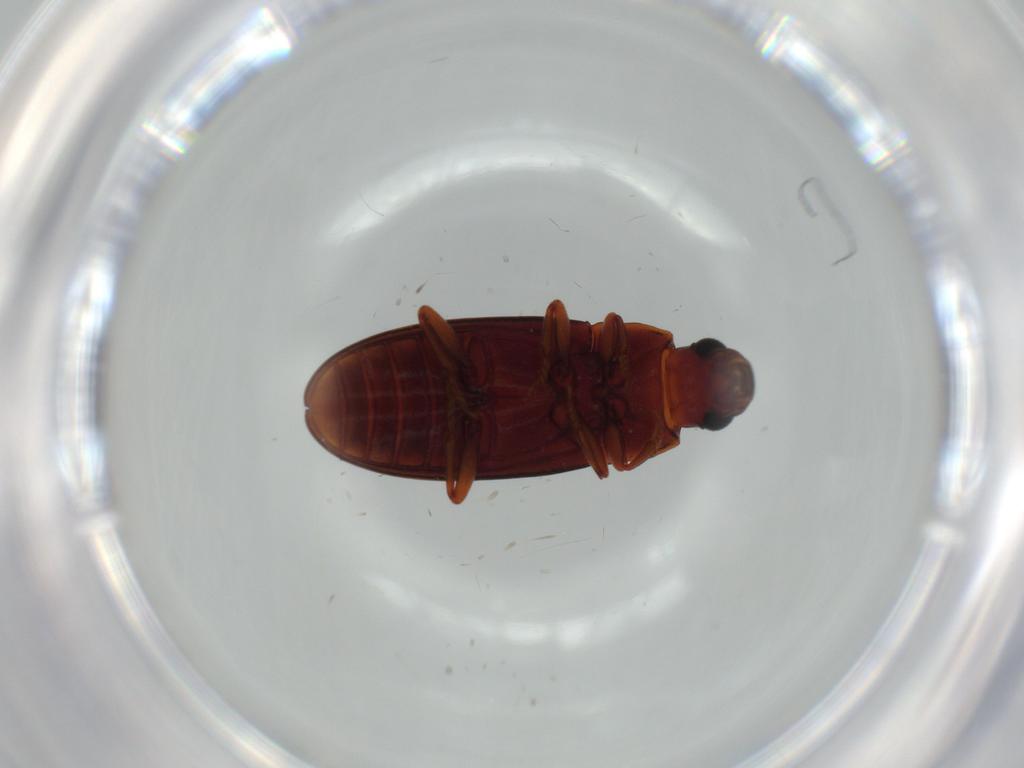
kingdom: Animalia
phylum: Arthropoda
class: Insecta
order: Coleoptera
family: Erotylidae
